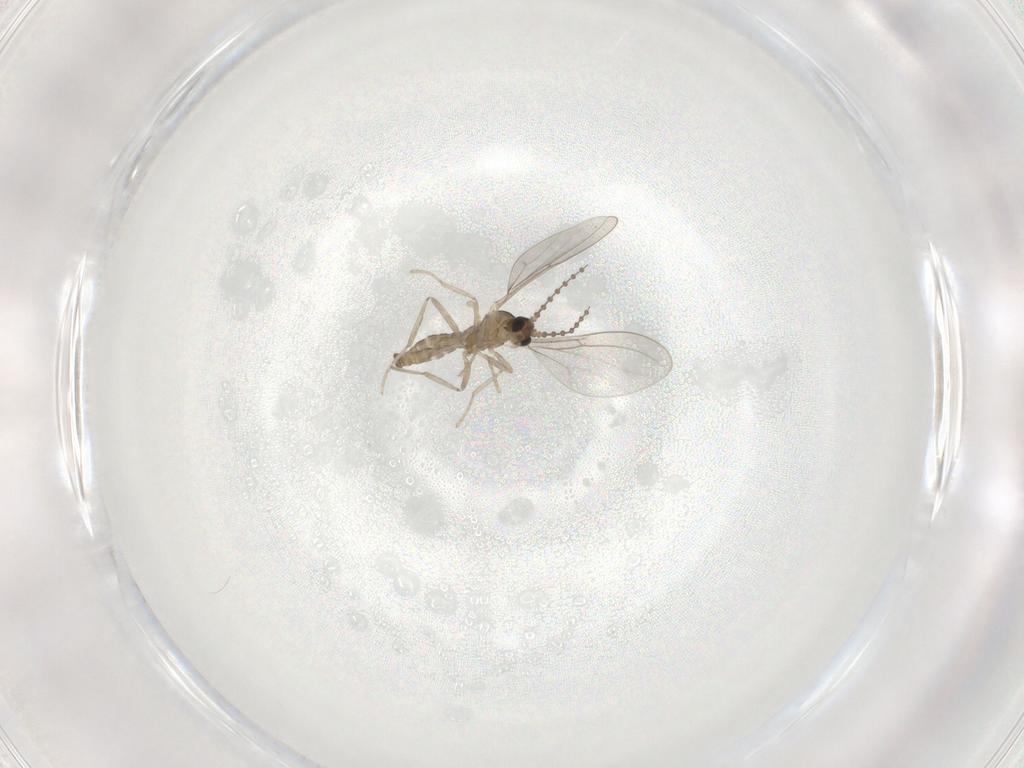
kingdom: Animalia
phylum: Arthropoda
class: Insecta
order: Diptera
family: Cecidomyiidae
